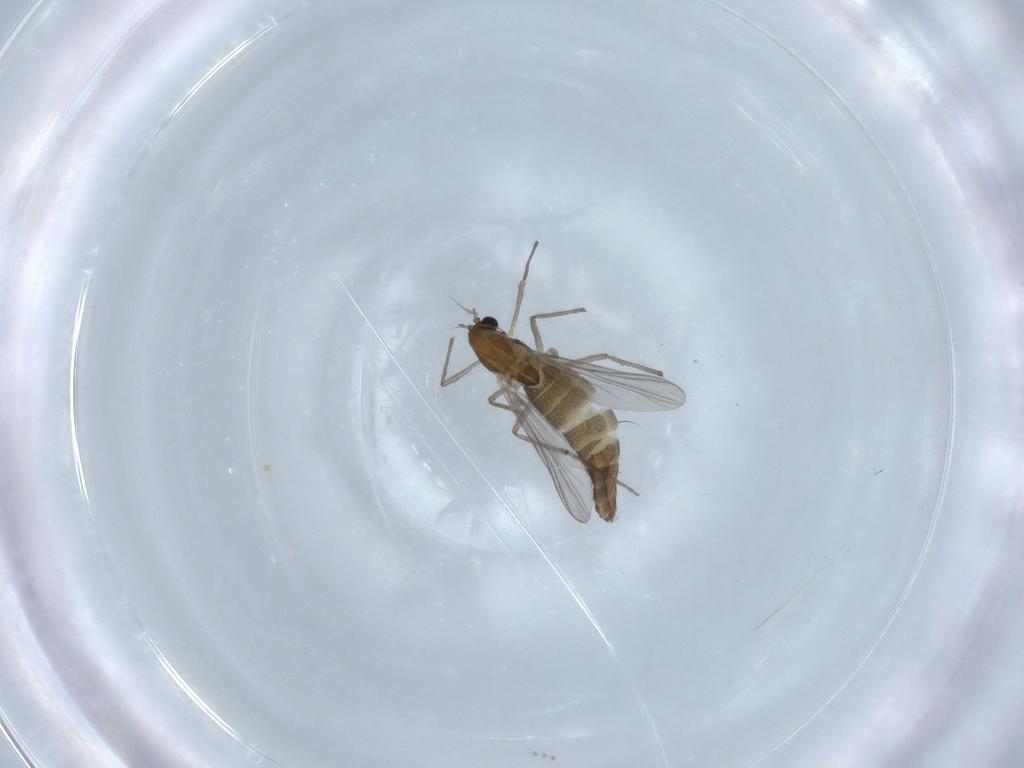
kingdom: Animalia
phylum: Arthropoda
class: Insecta
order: Diptera
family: Chironomidae
